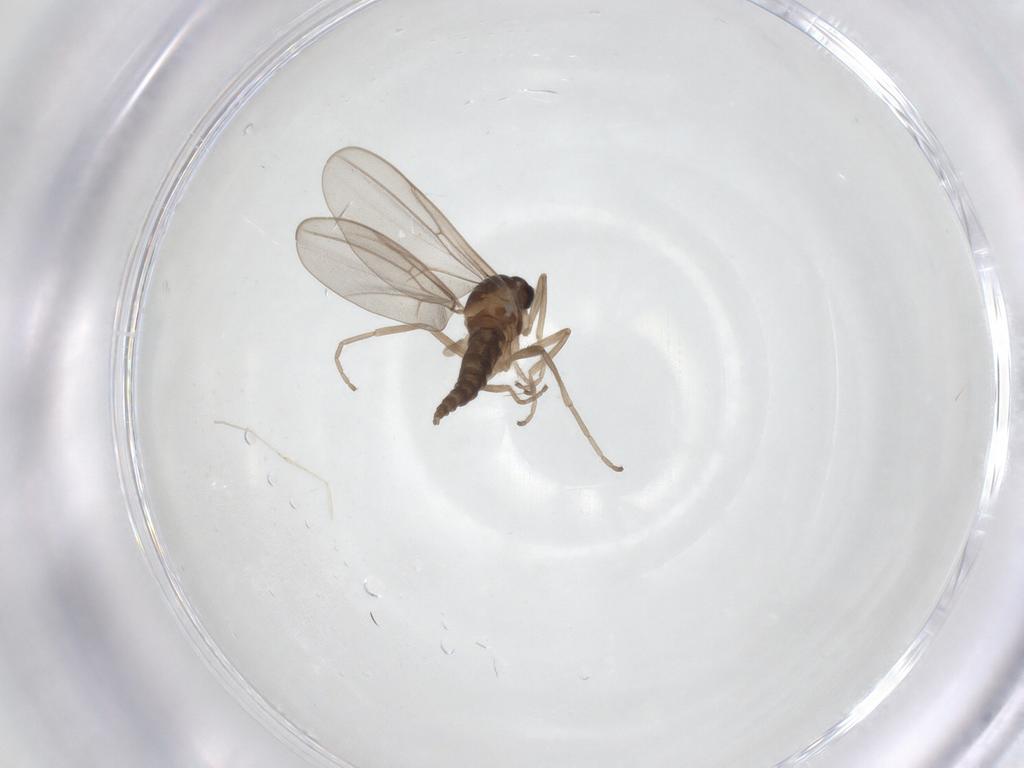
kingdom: Animalia
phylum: Arthropoda
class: Insecta
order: Diptera
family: Cecidomyiidae
